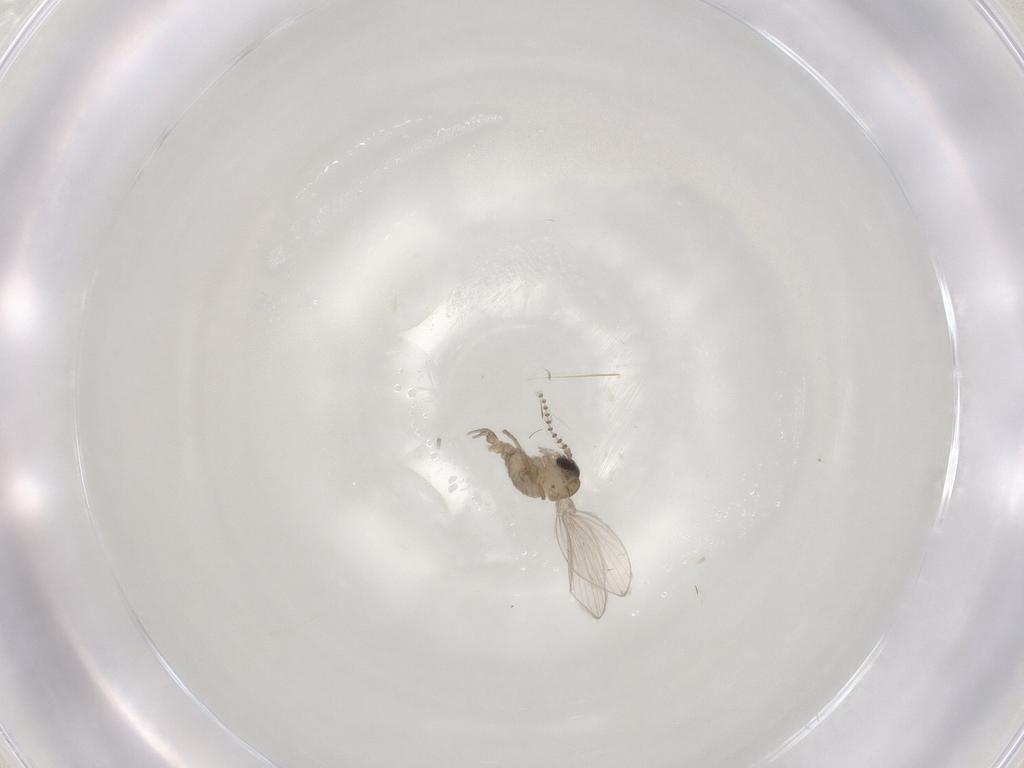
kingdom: Animalia
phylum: Arthropoda
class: Insecta
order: Diptera
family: Psychodidae
